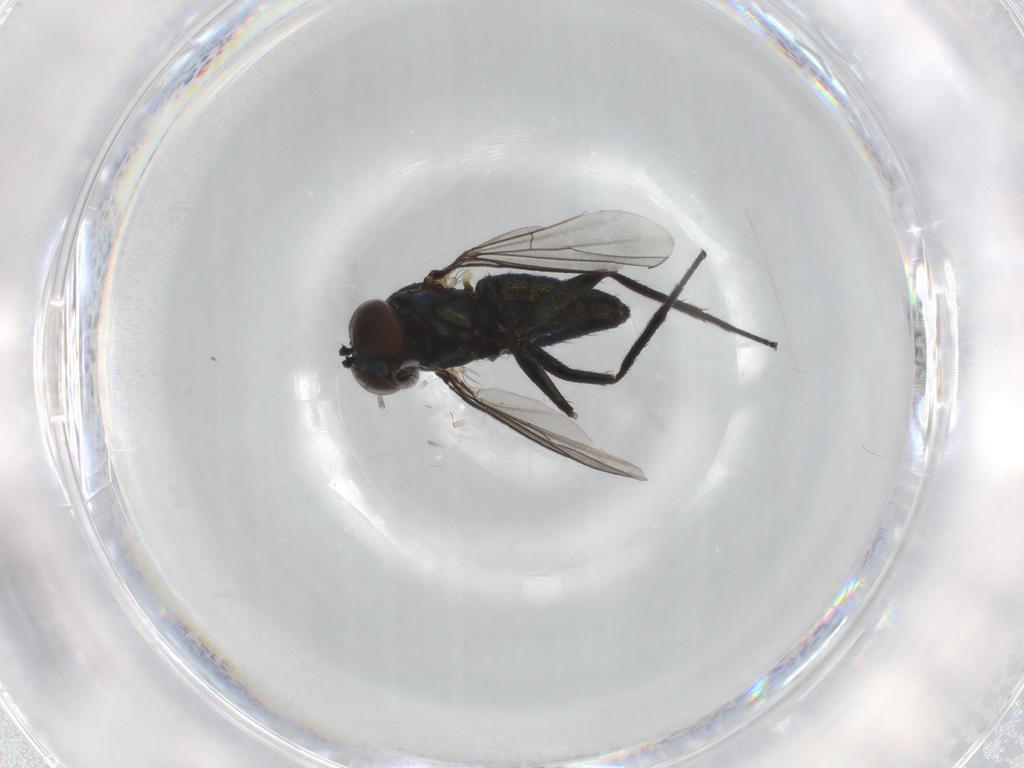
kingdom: Animalia
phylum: Arthropoda
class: Insecta
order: Diptera
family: Dolichopodidae
